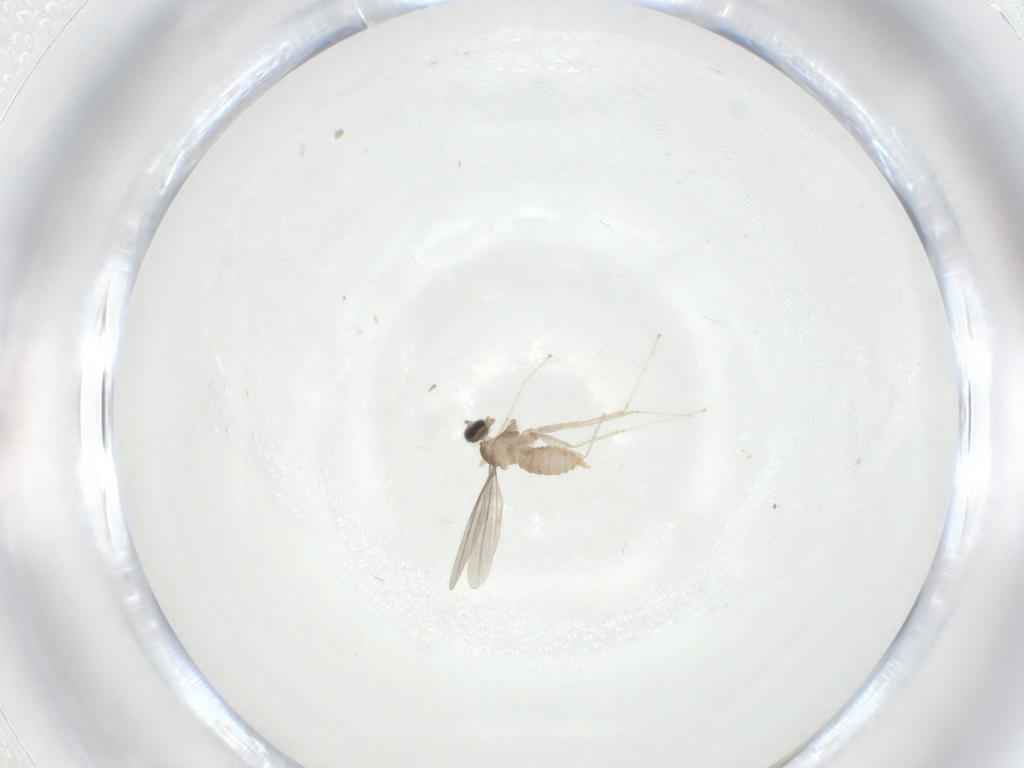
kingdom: Animalia
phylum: Arthropoda
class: Insecta
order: Diptera
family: Cecidomyiidae
